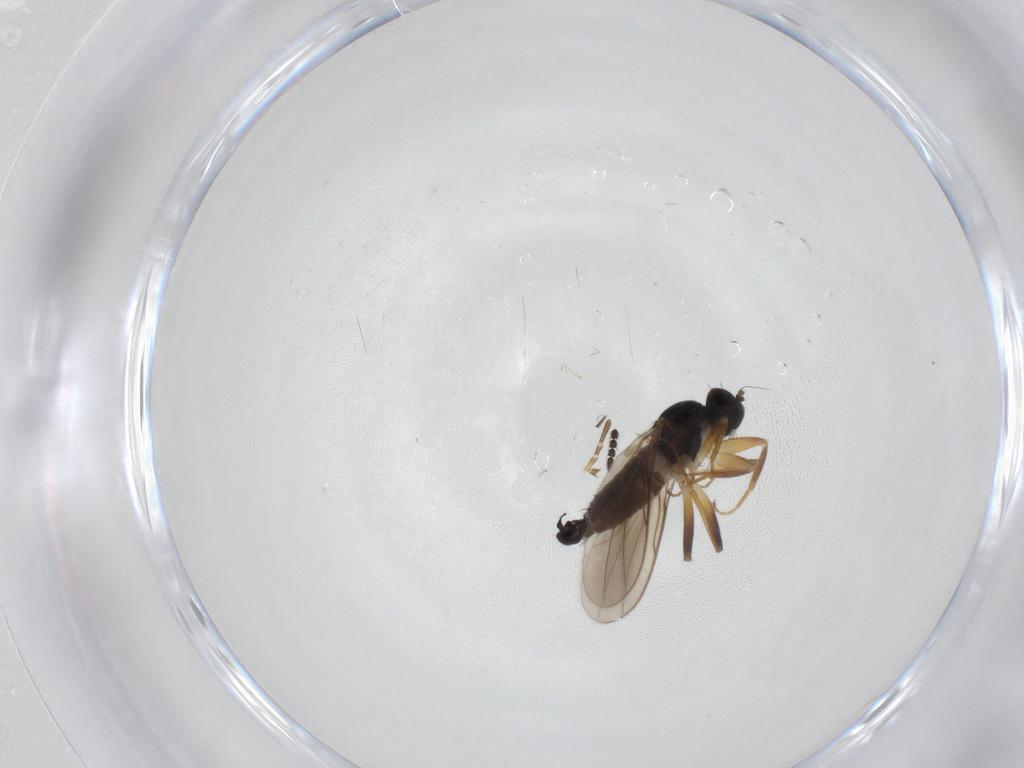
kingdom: Animalia
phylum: Arthropoda
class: Insecta
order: Diptera
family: Hybotidae
